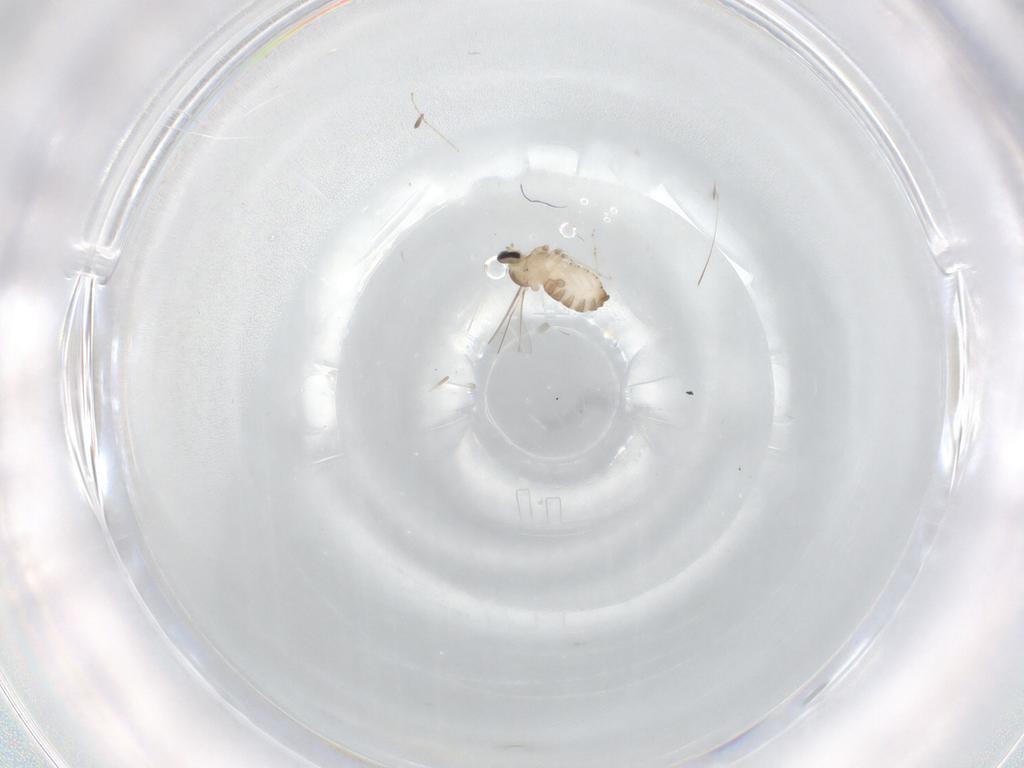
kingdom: Animalia
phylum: Arthropoda
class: Insecta
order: Diptera
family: Cecidomyiidae
